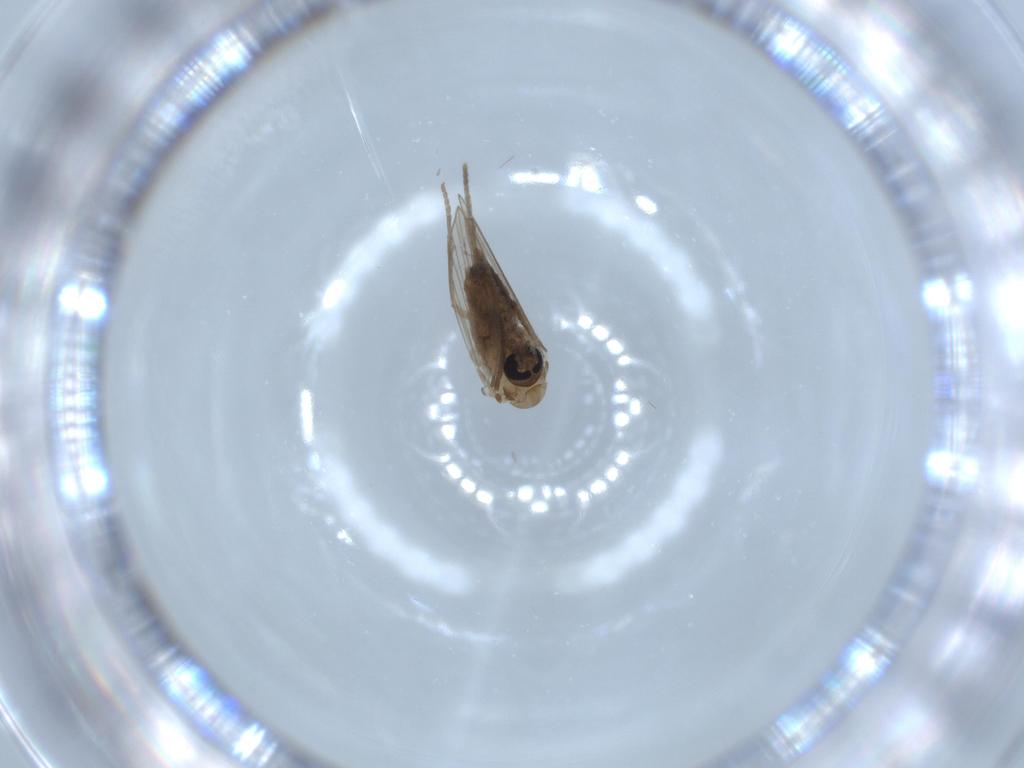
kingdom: Animalia
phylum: Arthropoda
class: Insecta
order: Diptera
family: Psychodidae
